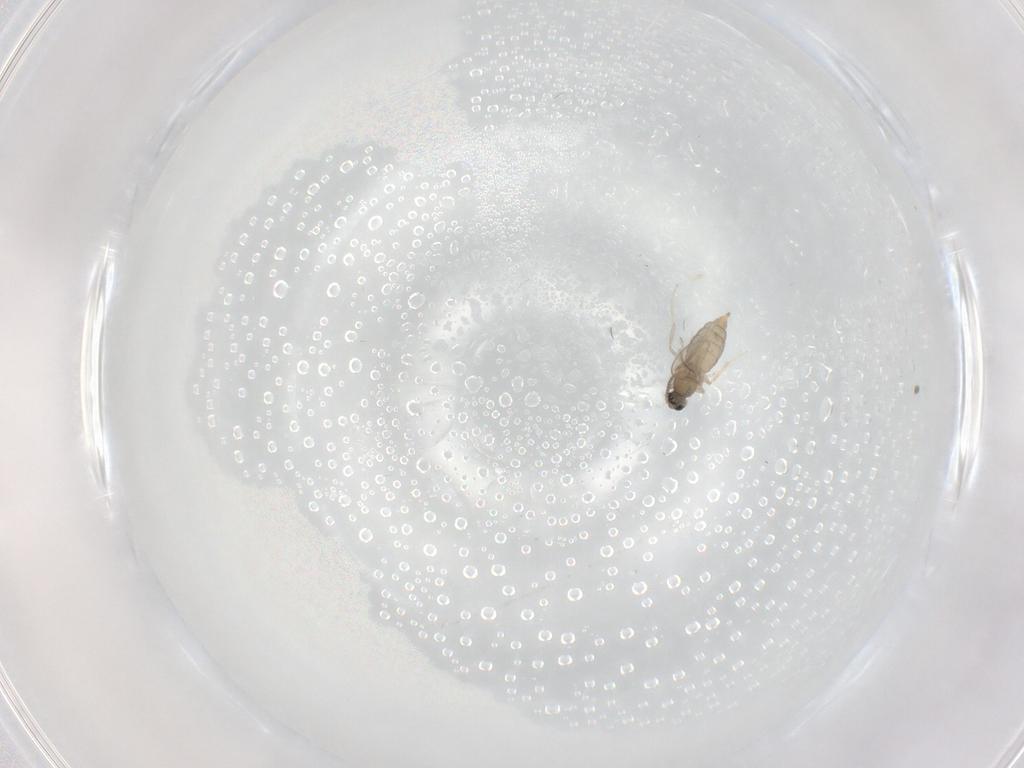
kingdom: Animalia
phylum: Arthropoda
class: Insecta
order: Diptera
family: Cecidomyiidae
